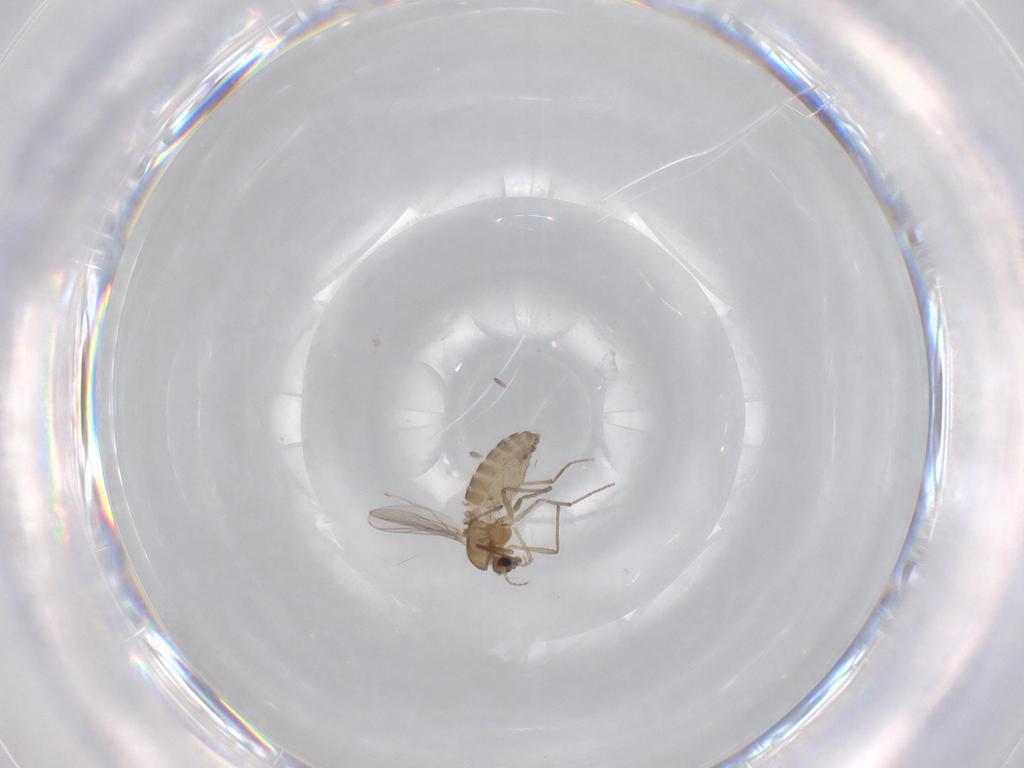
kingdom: Animalia
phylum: Arthropoda
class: Insecta
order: Diptera
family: Chironomidae
